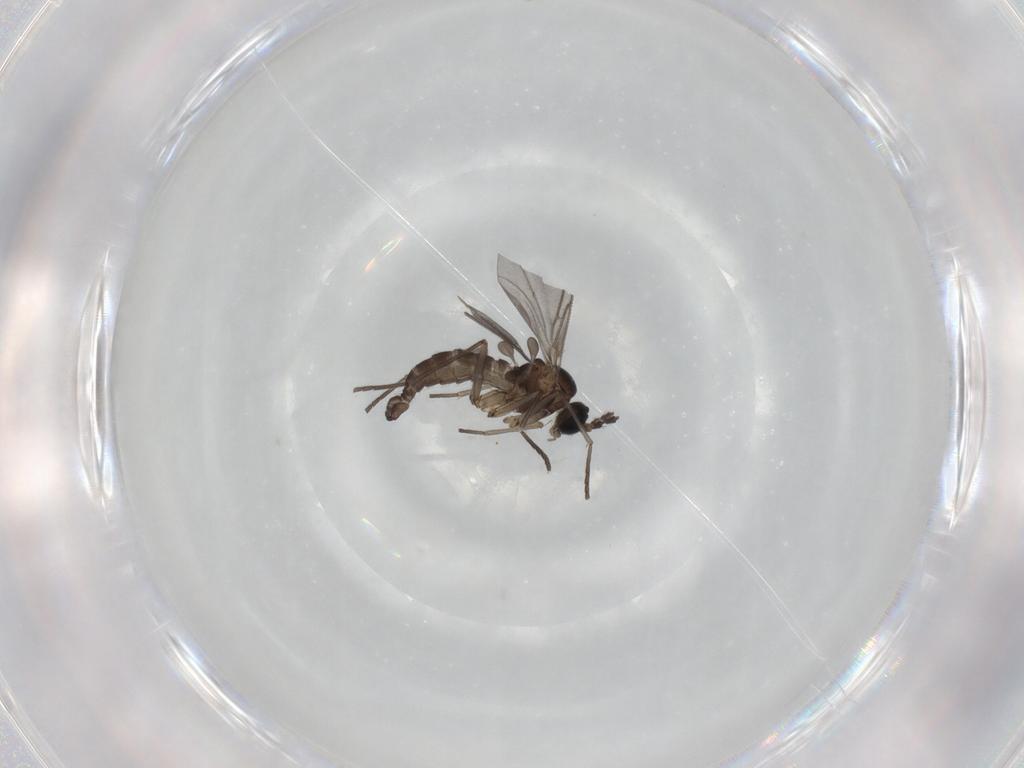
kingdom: Animalia
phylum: Arthropoda
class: Insecta
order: Diptera
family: Sciaridae
